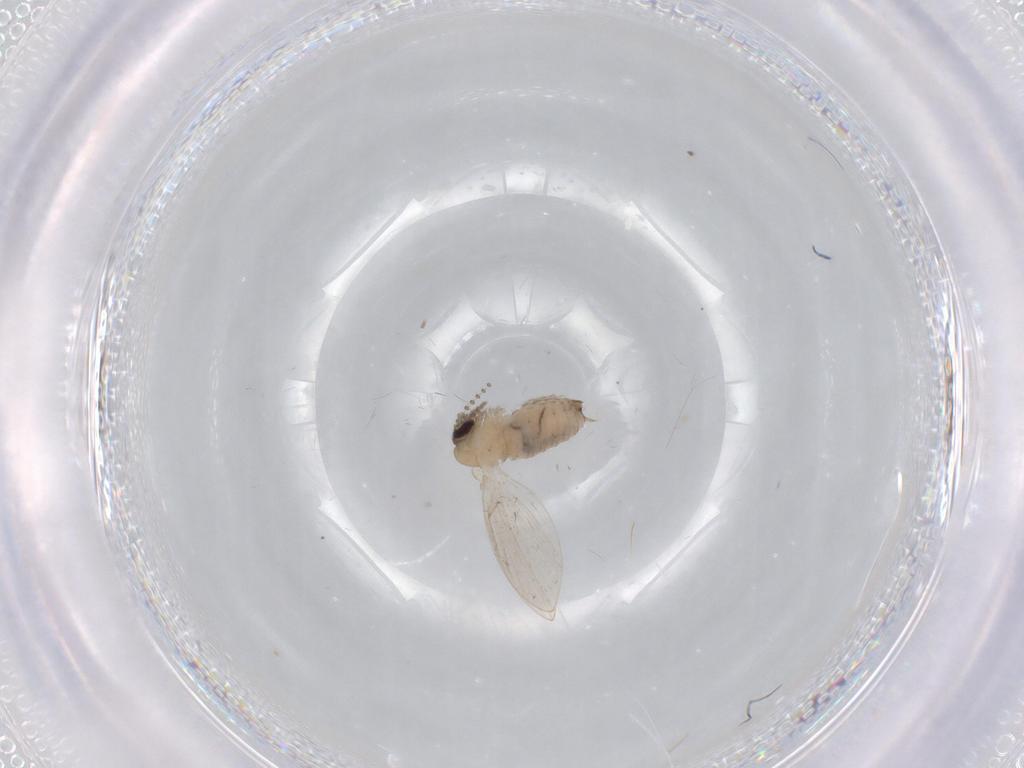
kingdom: Animalia
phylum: Arthropoda
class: Insecta
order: Diptera
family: Psychodidae
